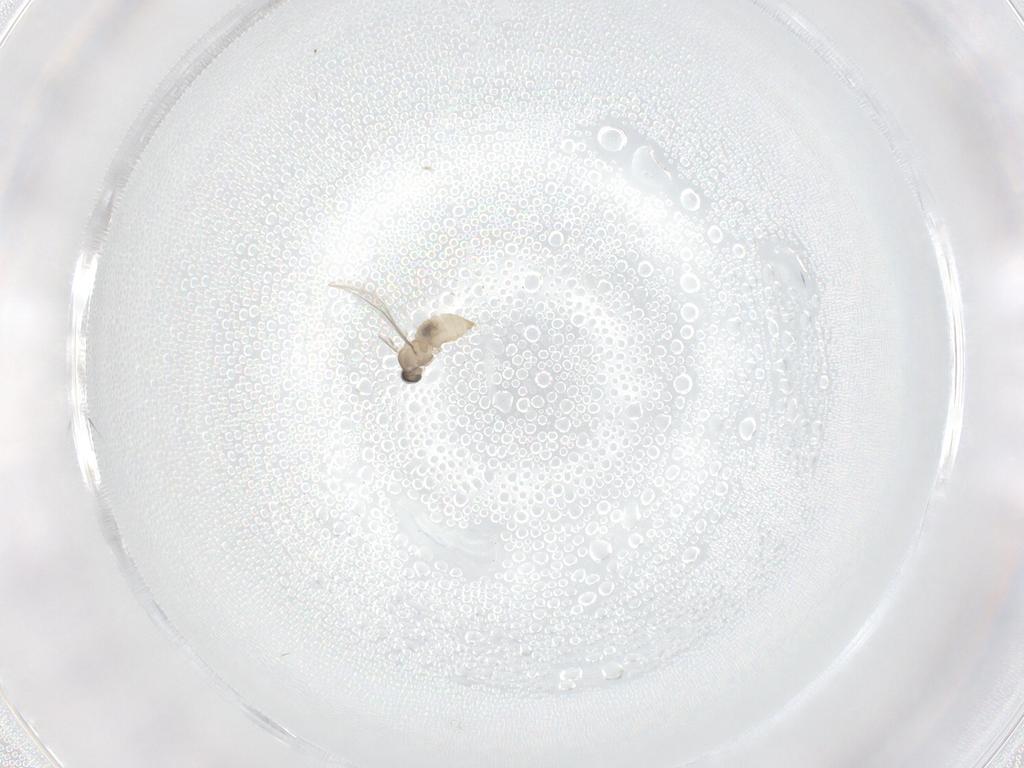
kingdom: Animalia
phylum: Arthropoda
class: Insecta
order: Diptera
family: Cecidomyiidae
